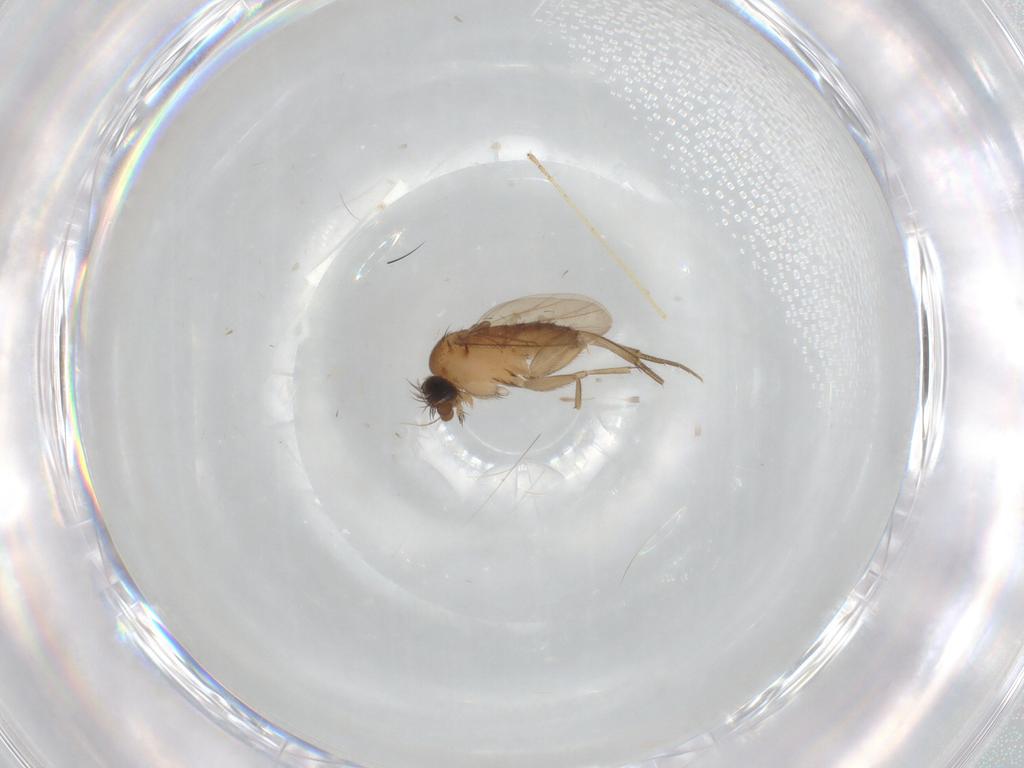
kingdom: Animalia
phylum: Arthropoda
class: Insecta
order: Diptera
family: Phoridae
